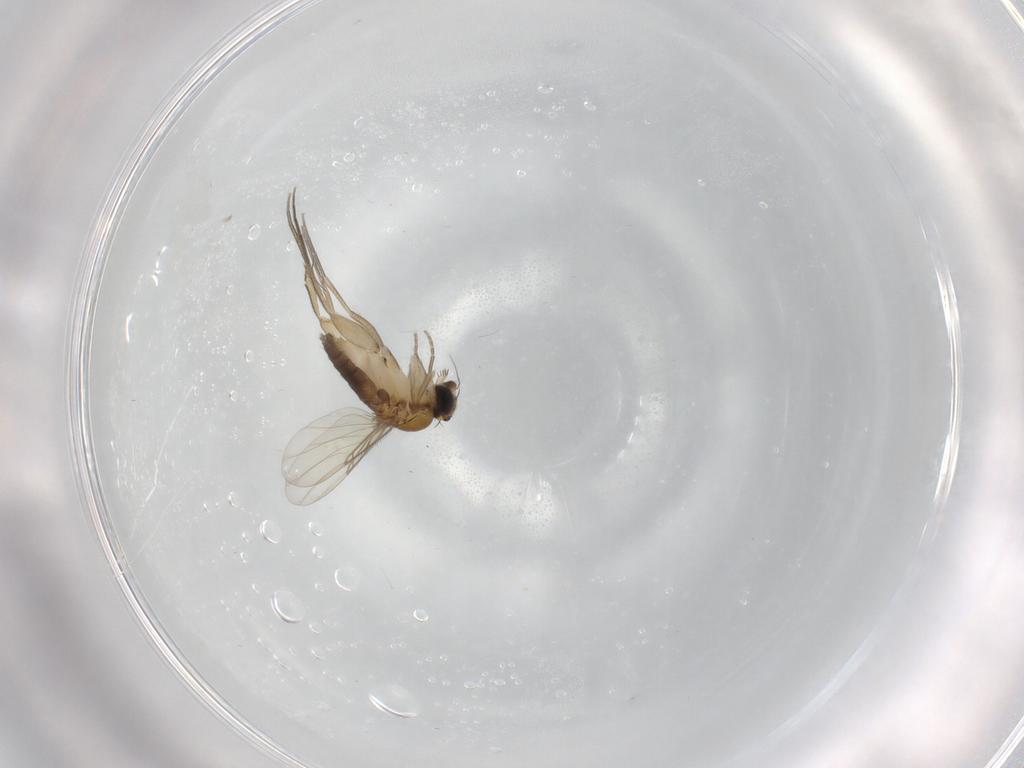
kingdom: Animalia
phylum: Arthropoda
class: Insecta
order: Diptera
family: Phoridae
